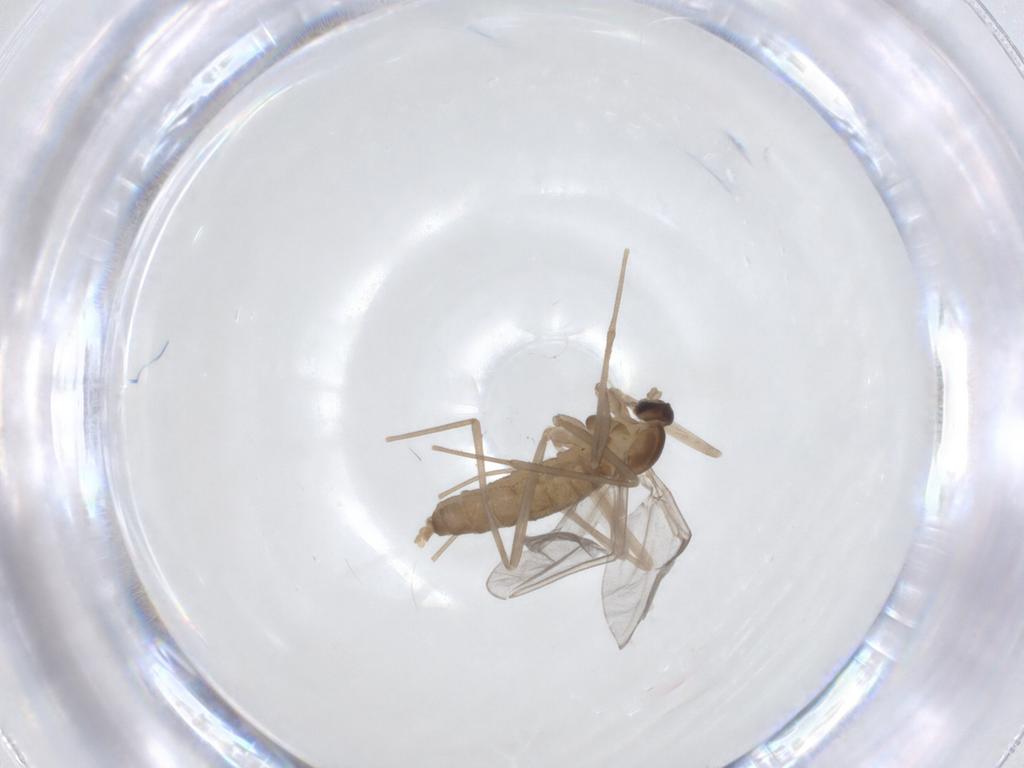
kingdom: Animalia
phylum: Arthropoda
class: Insecta
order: Diptera
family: Cecidomyiidae
